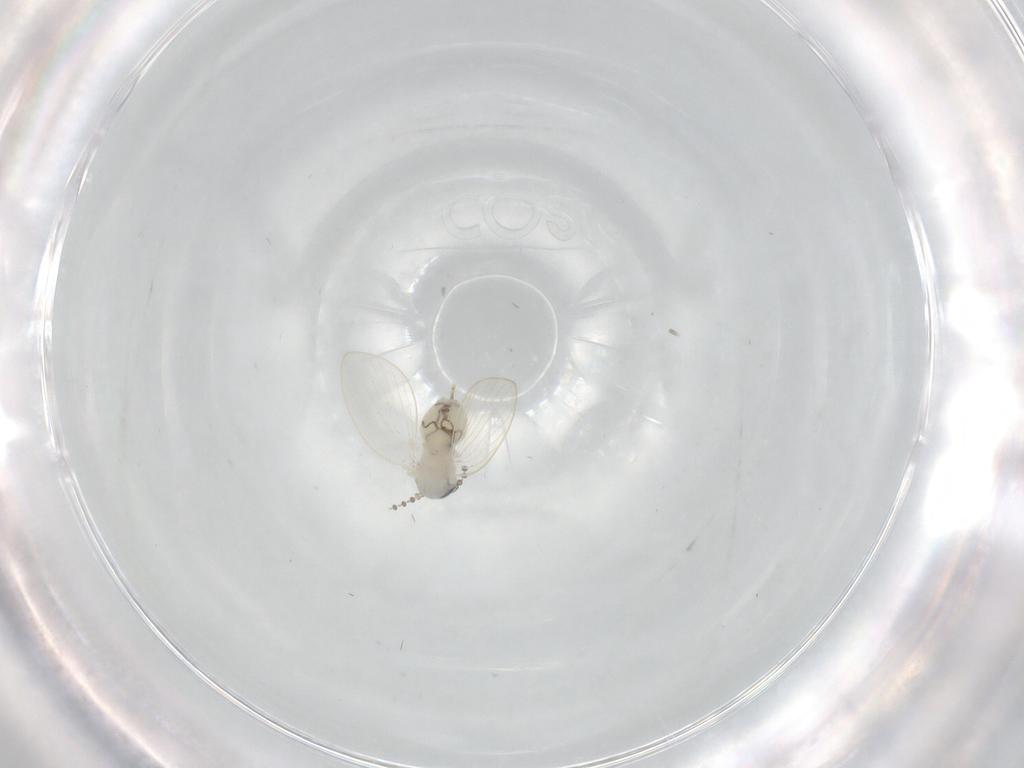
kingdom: Animalia
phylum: Arthropoda
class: Insecta
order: Diptera
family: Psychodidae
